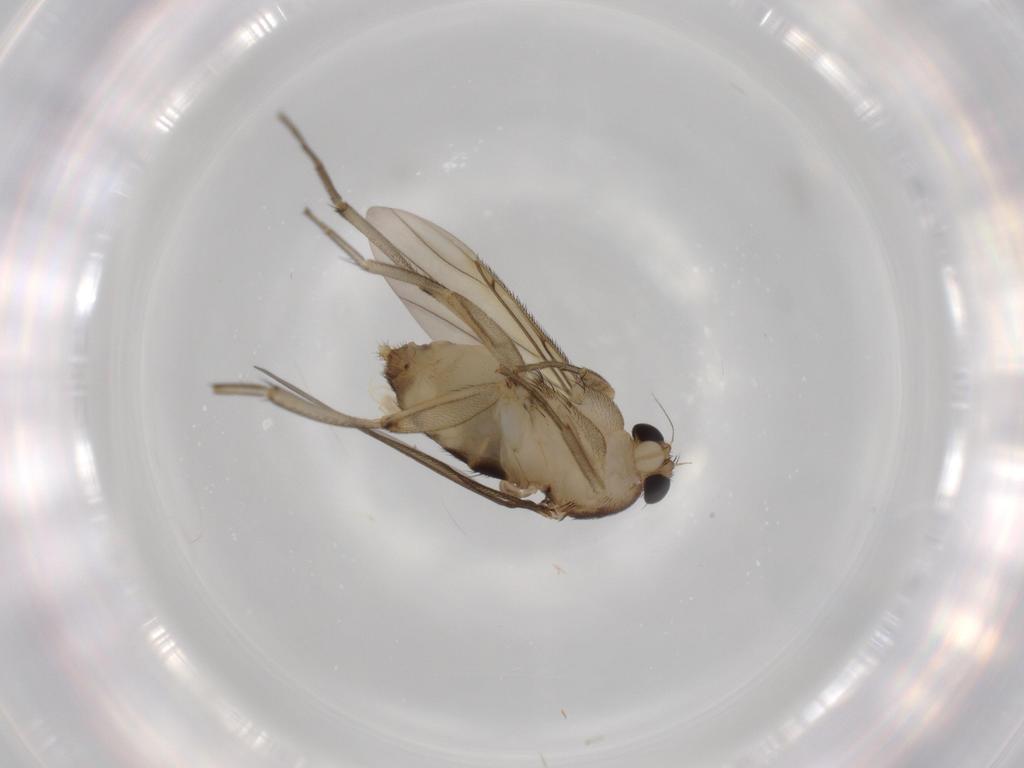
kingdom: Animalia
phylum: Arthropoda
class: Insecta
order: Diptera
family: Phoridae
